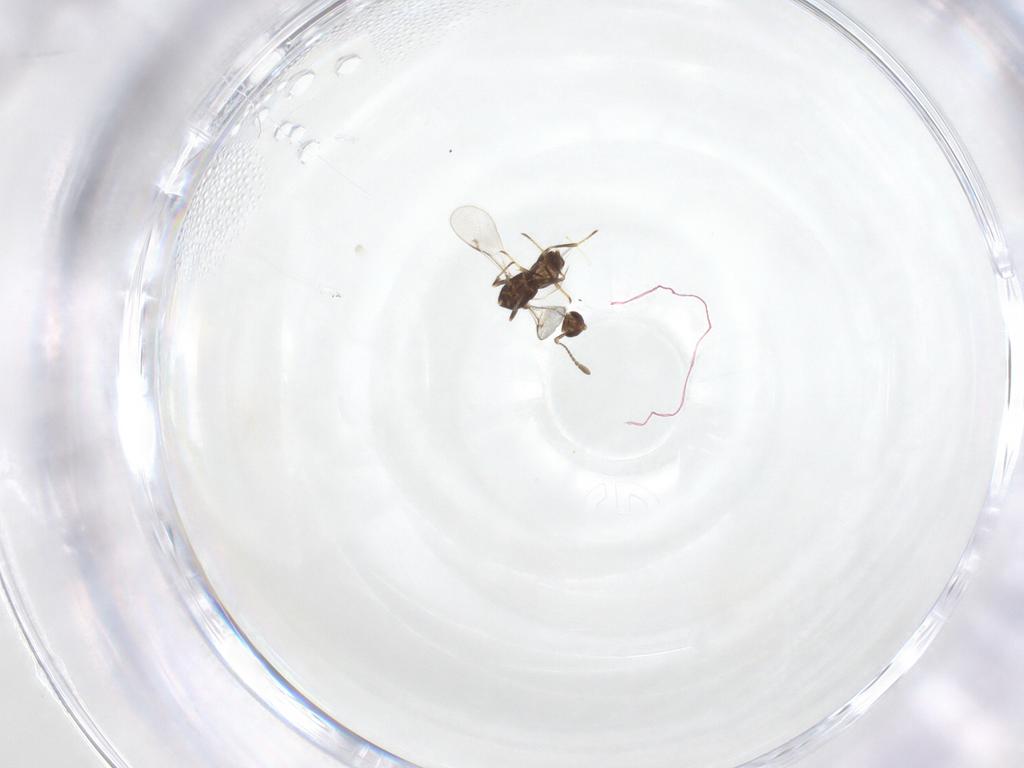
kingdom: Animalia
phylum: Arthropoda
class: Insecta
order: Hymenoptera
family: Encyrtidae
